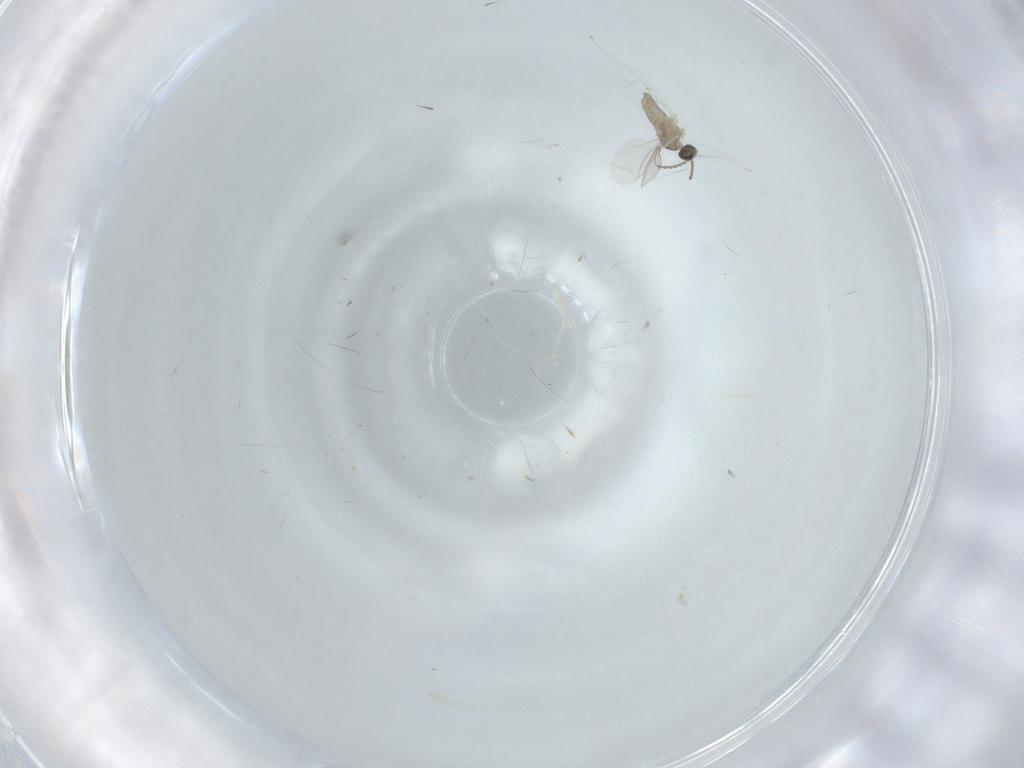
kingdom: Animalia
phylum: Arthropoda
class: Insecta
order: Diptera
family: Cecidomyiidae
